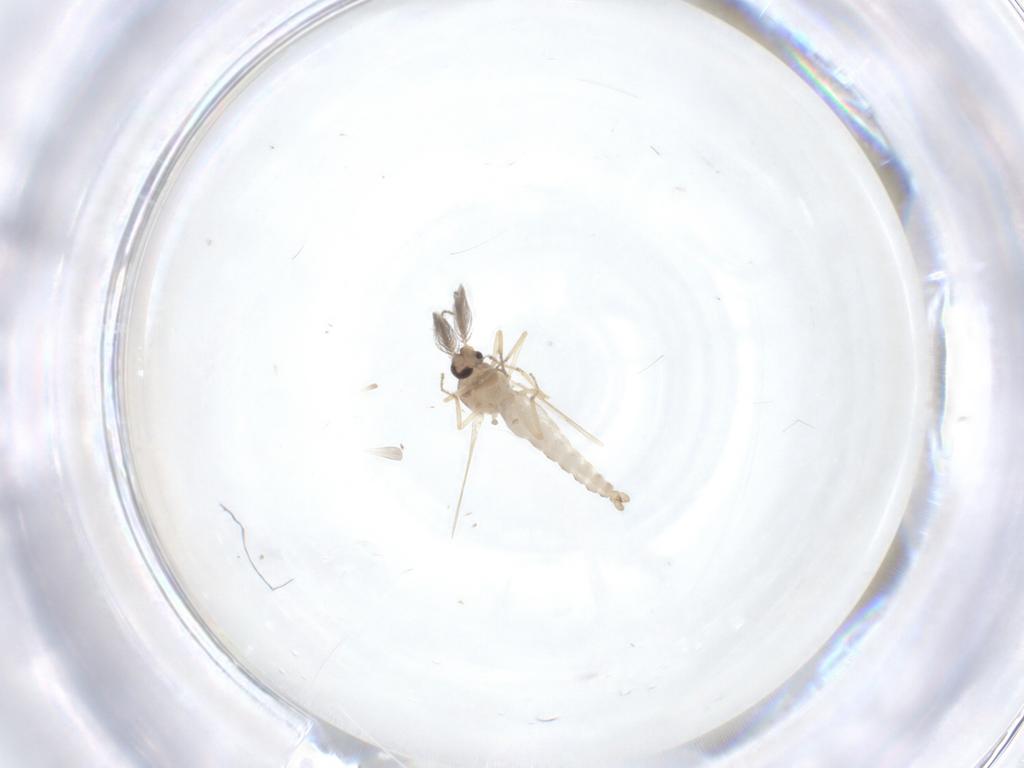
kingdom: Animalia
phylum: Arthropoda
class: Insecta
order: Diptera
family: Ceratopogonidae
